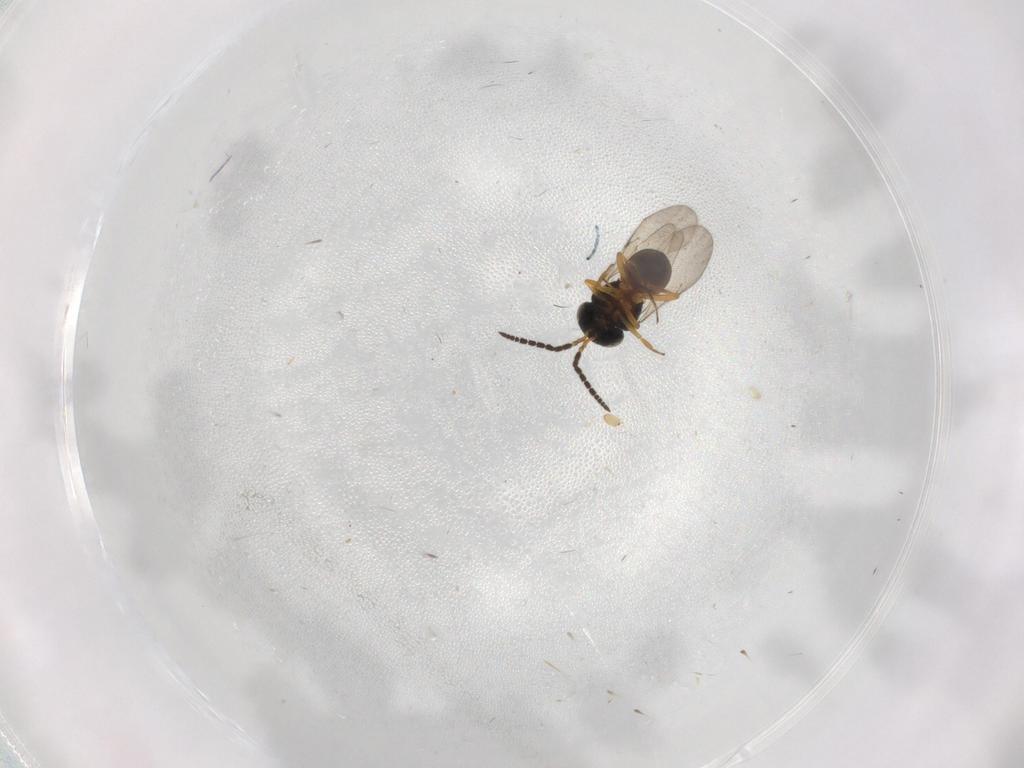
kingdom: Animalia
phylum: Arthropoda
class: Insecta
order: Hymenoptera
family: Scelionidae
